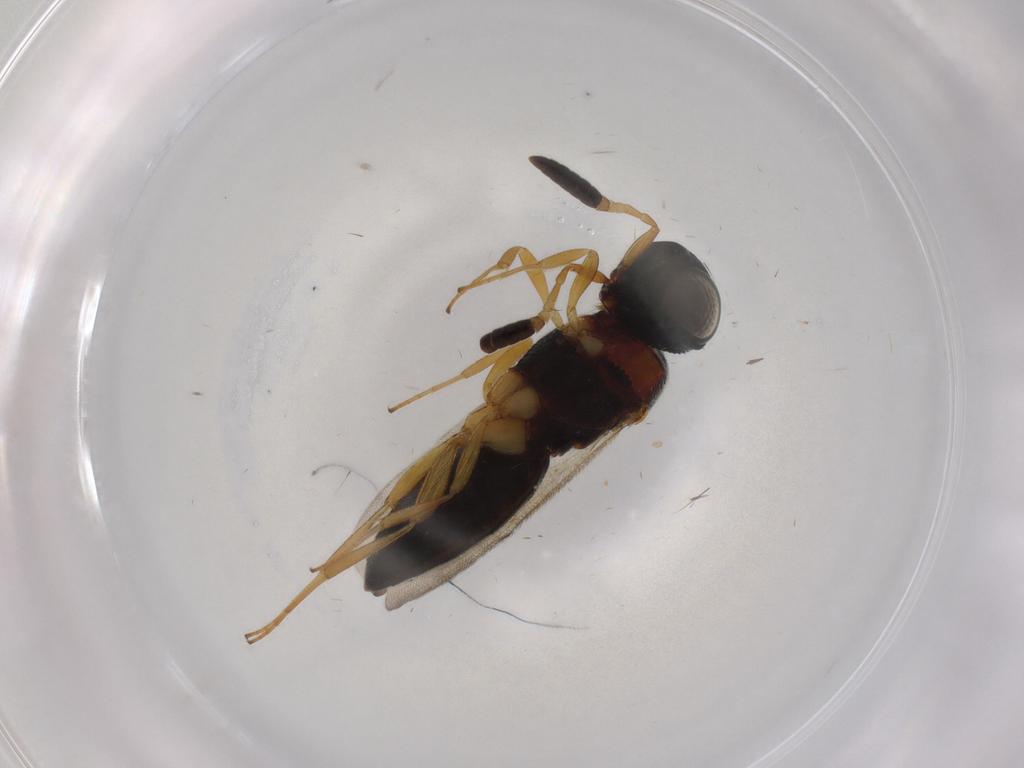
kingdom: Animalia
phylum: Arthropoda
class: Insecta
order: Hymenoptera
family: Scelionidae
